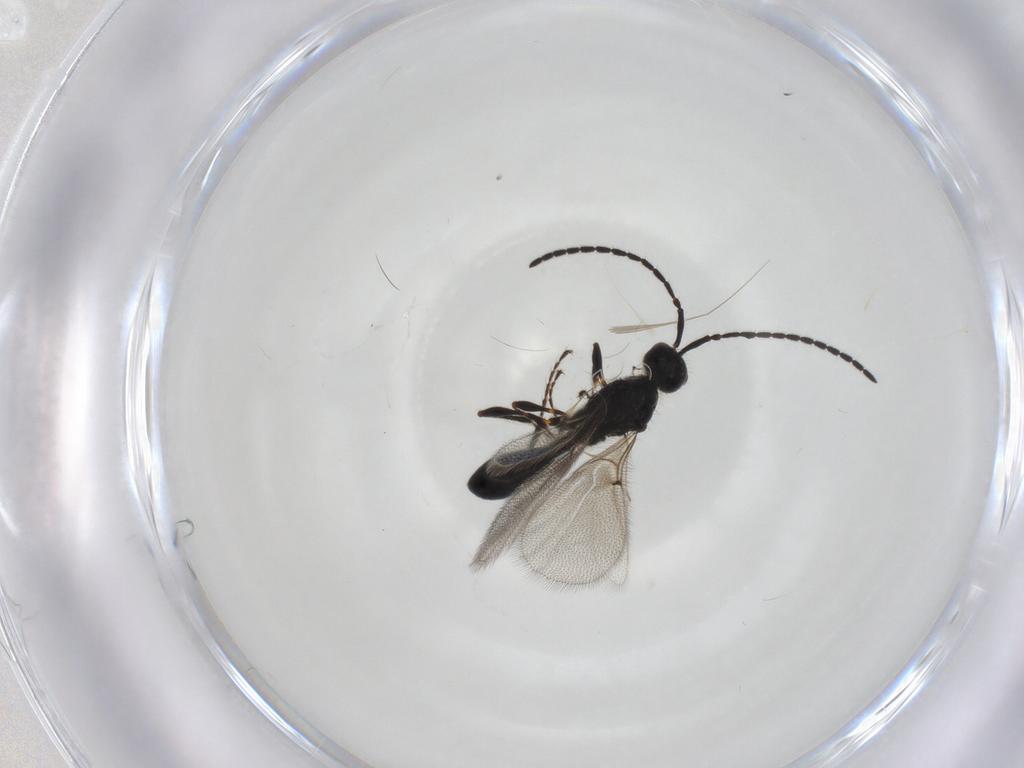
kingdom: Animalia
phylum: Arthropoda
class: Insecta
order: Hymenoptera
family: Diapriidae
